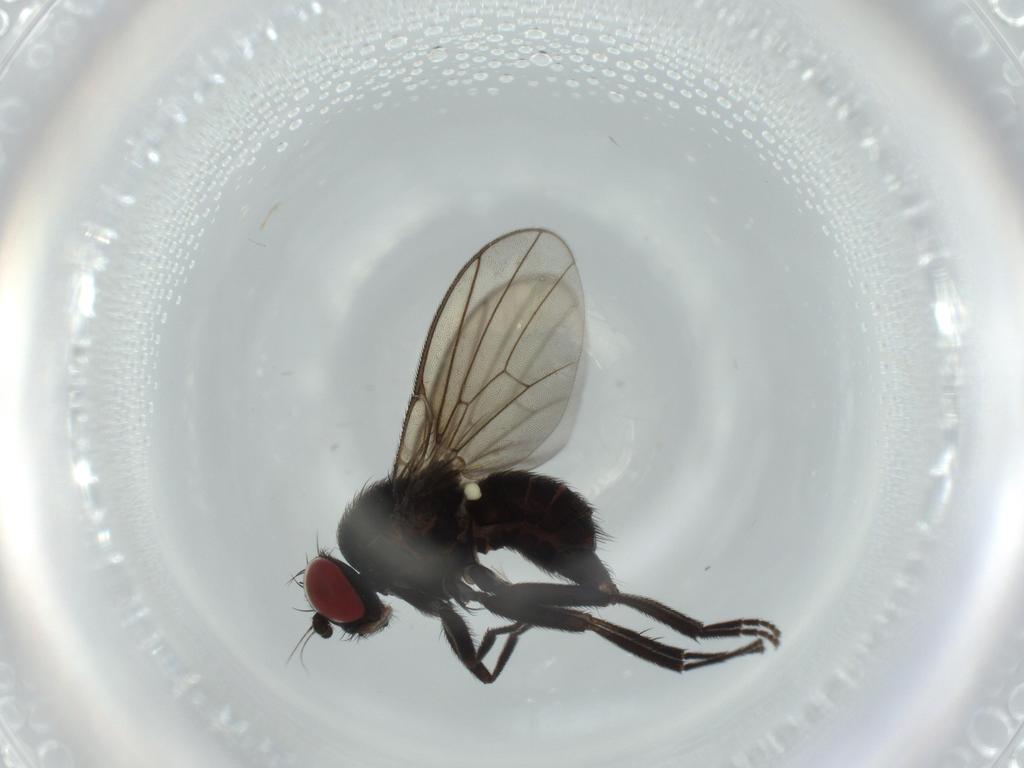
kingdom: Animalia
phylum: Arthropoda
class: Insecta
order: Diptera
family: Agromyzidae
